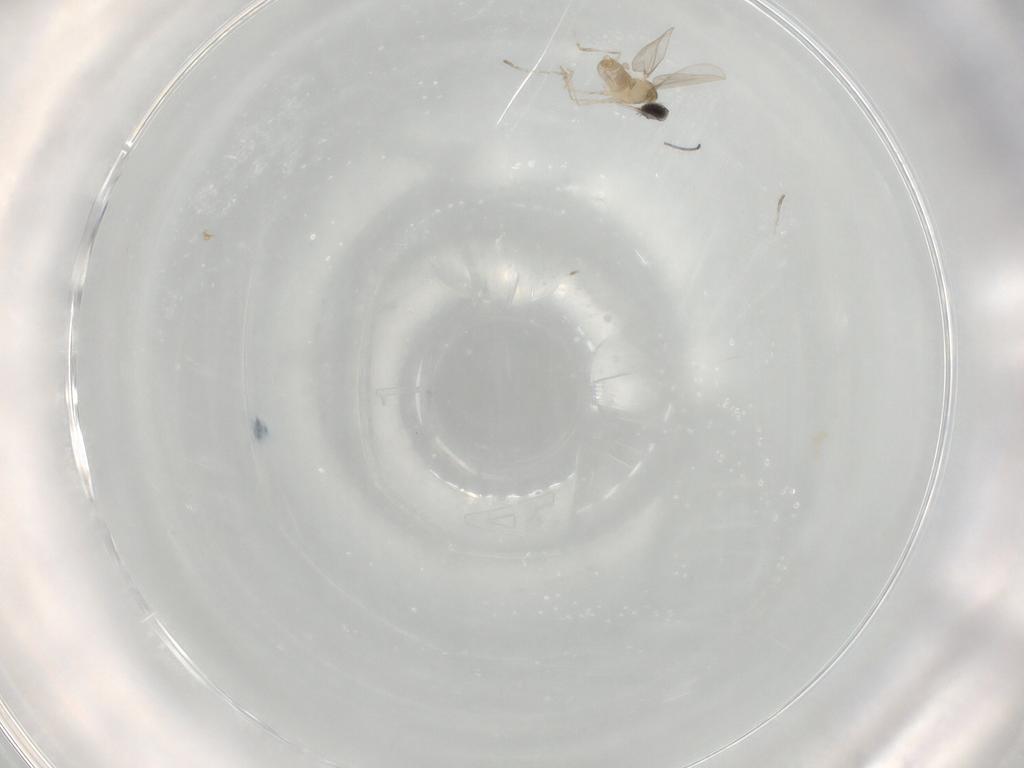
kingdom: Animalia
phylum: Arthropoda
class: Insecta
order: Diptera
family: Cecidomyiidae
